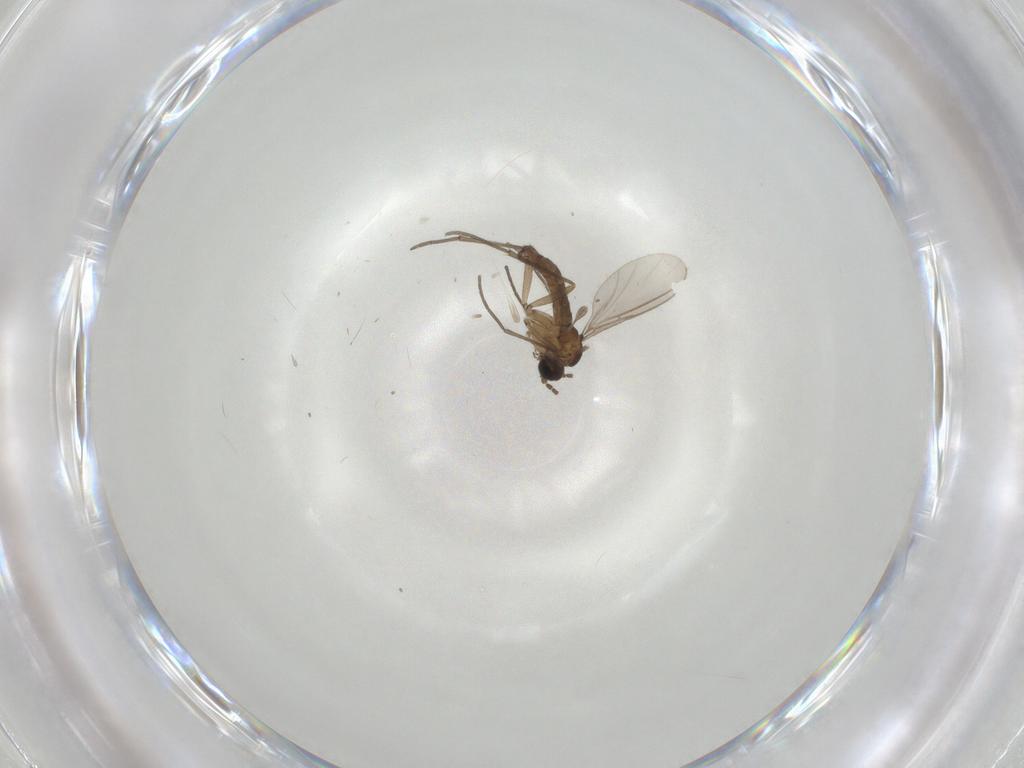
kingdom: Animalia
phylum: Arthropoda
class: Insecta
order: Diptera
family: Sciaridae
